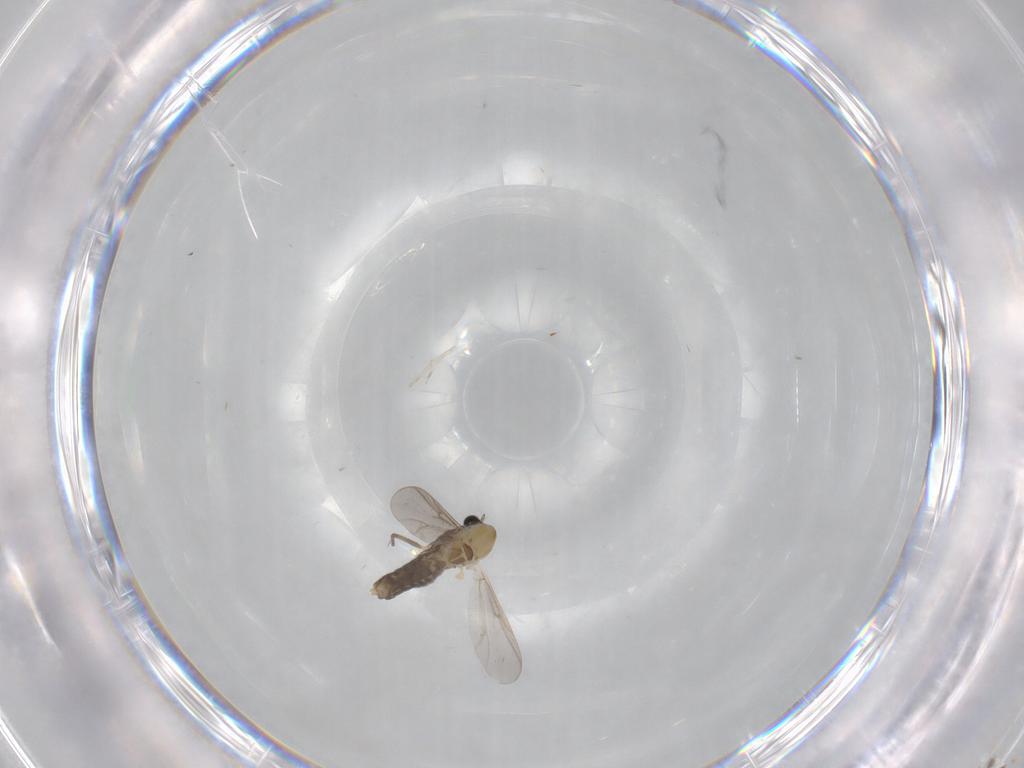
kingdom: Animalia
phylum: Arthropoda
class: Insecta
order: Diptera
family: Chironomidae
